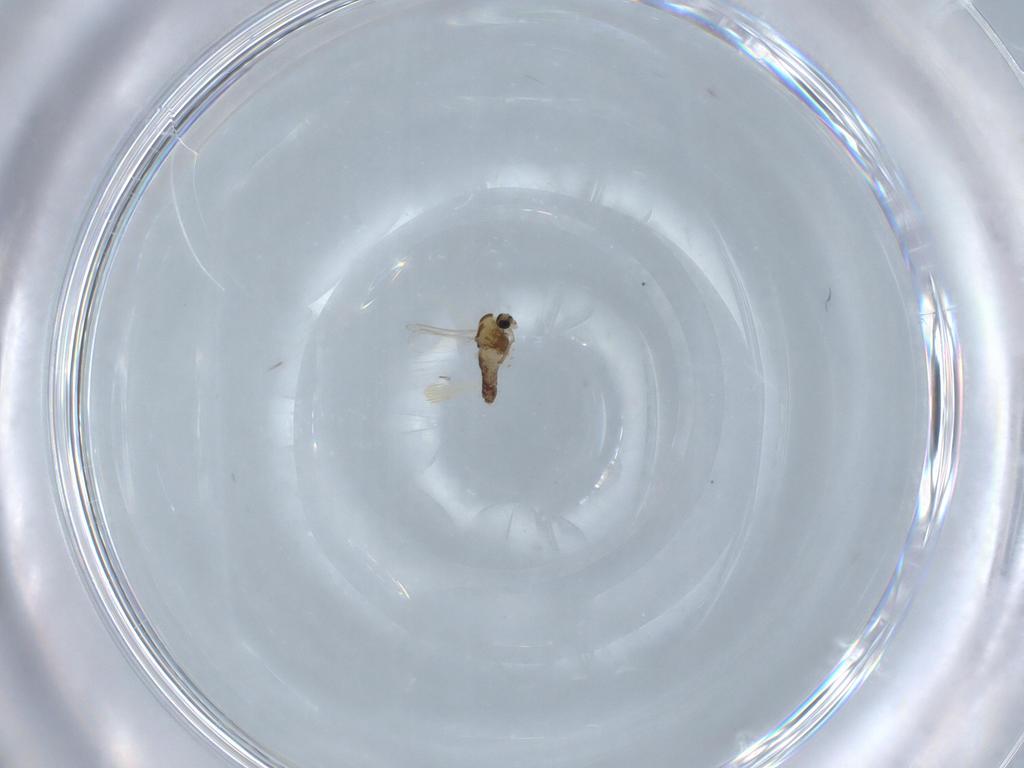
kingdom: Animalia
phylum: Arthropoda
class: Insecta
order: Diptera
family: Chironomidae
